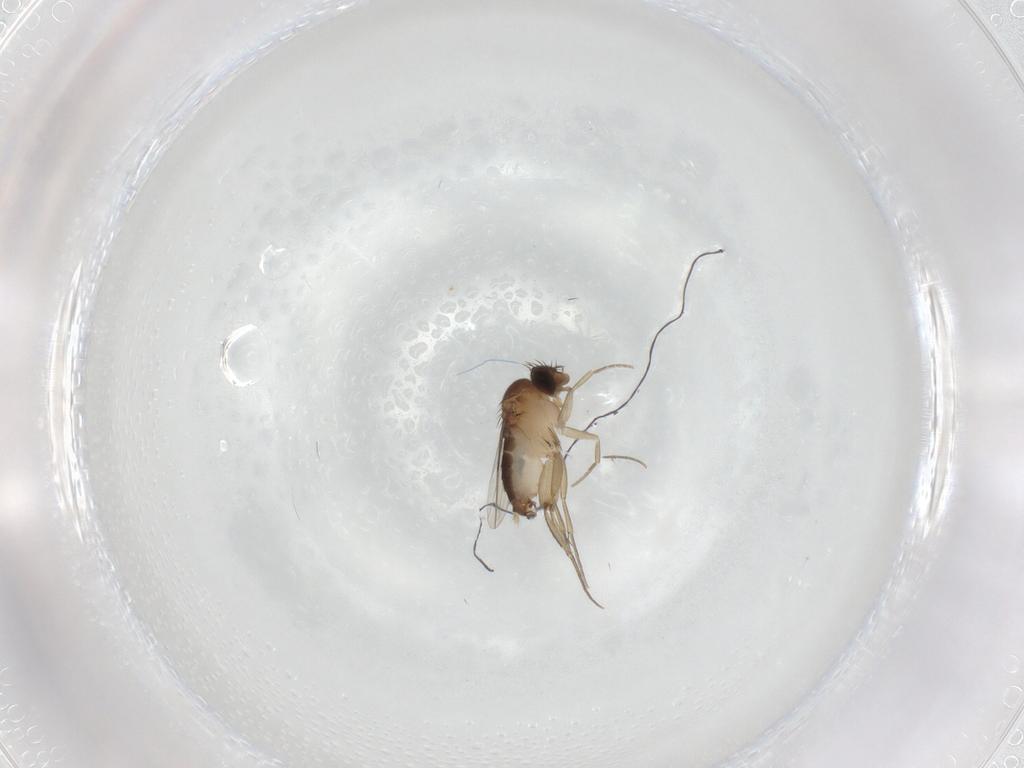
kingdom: Animalia
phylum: Arthropoda
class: Insecta
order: Diptera
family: Phoridae
